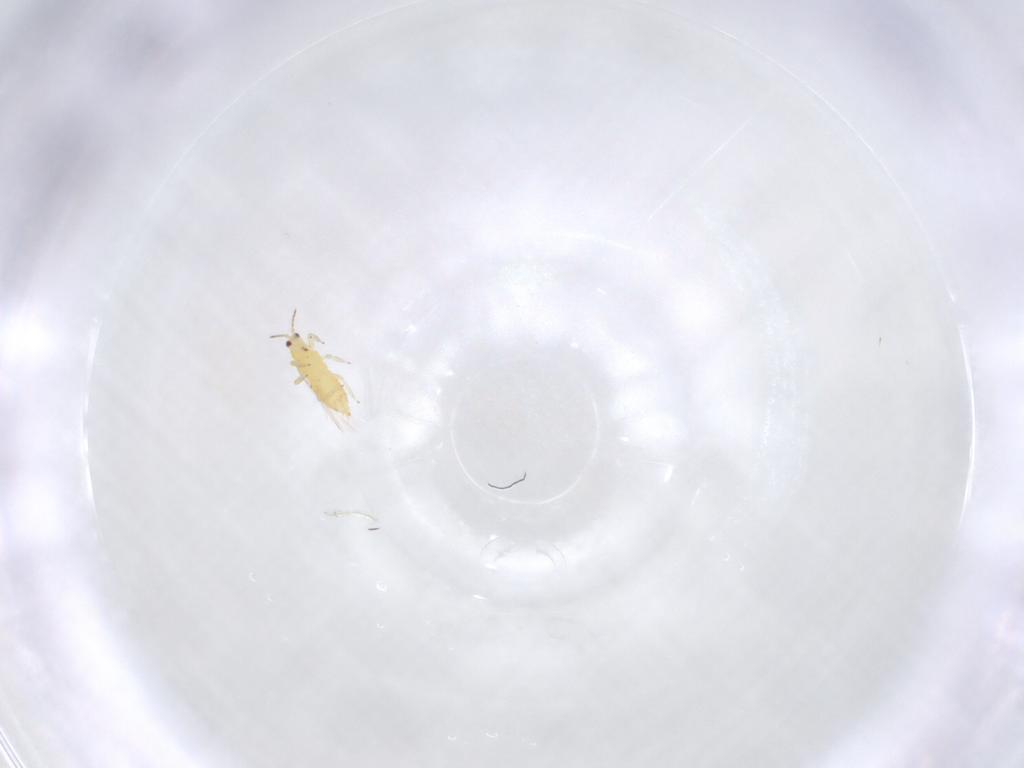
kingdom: Animalia
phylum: Arthropoda
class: Insecta
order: Thysanoptera
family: Thripidae
